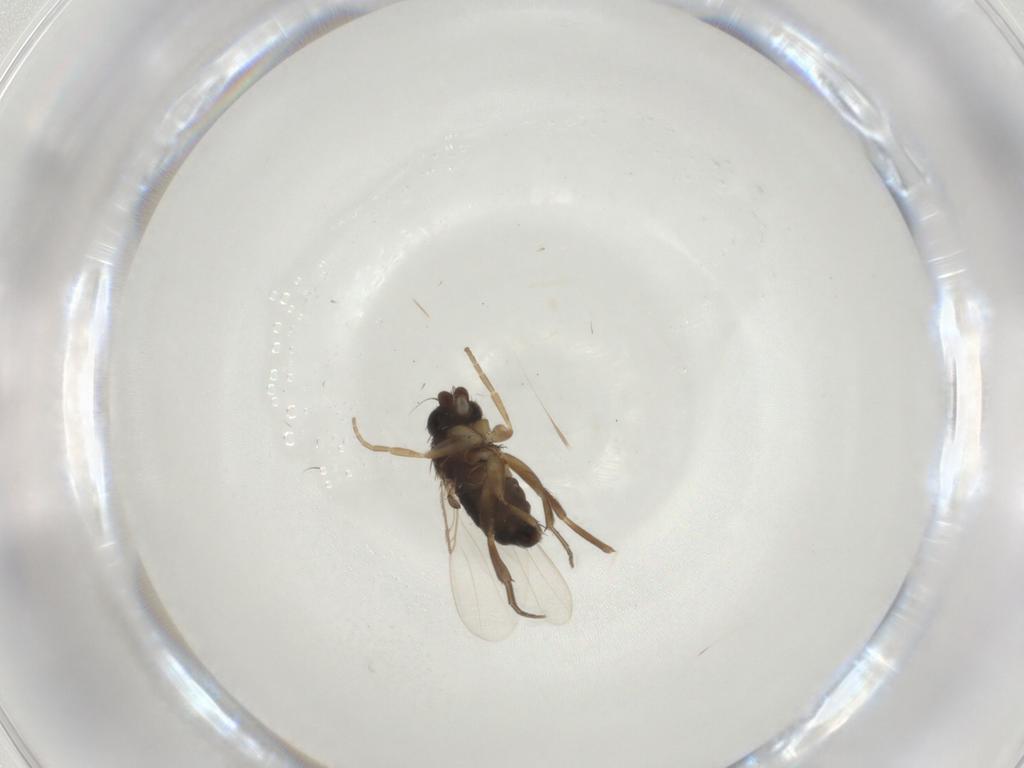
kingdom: Animalia
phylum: Arthropoda
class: Insecta
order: Diptera
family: Phoridae
